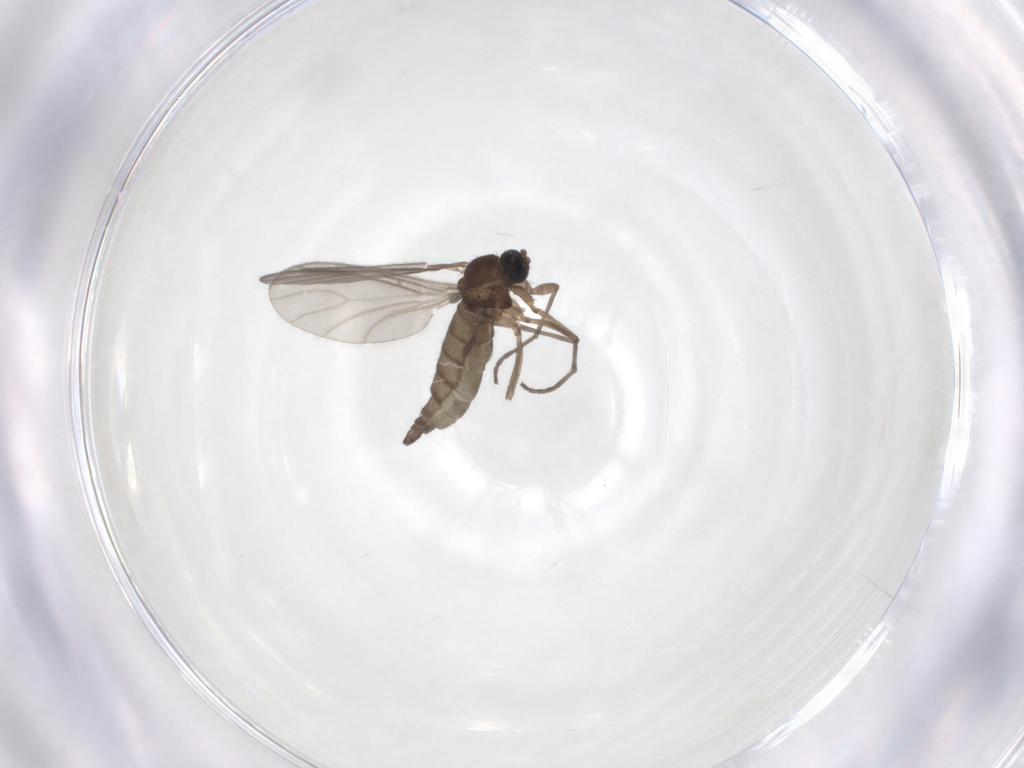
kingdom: Animalia
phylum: Arthropoda
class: Insecta
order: Diptera
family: Sciaridae
